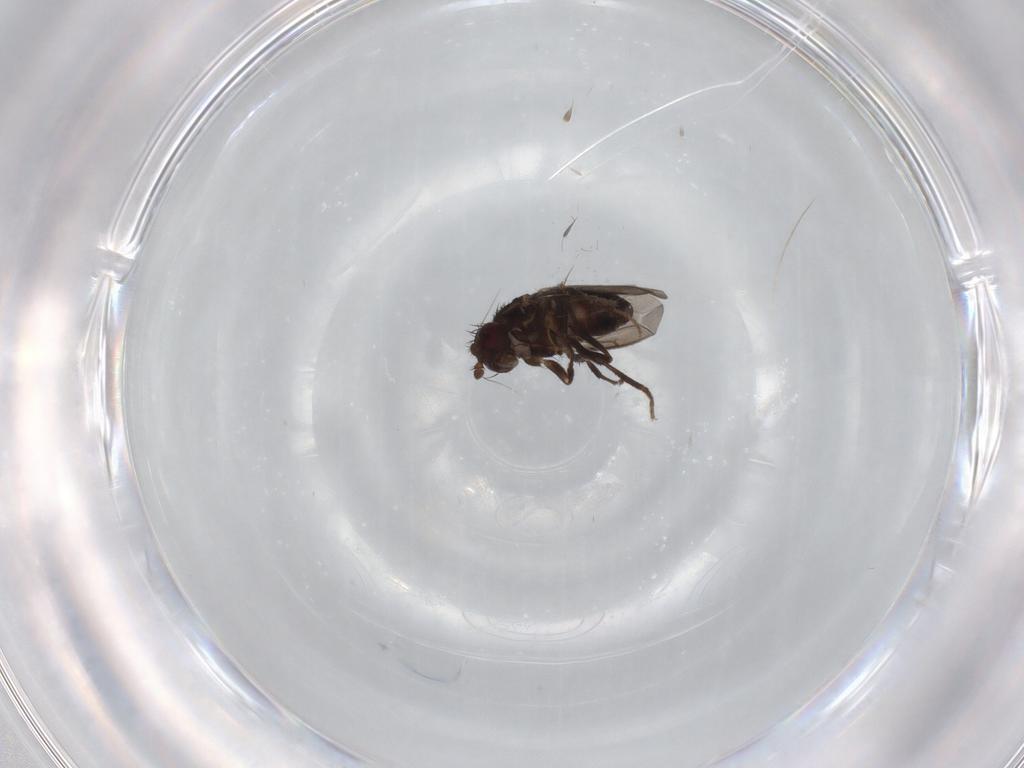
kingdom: Animalia
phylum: Arthropoda
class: Insecta
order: Diptera
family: Sphaeroceridae
